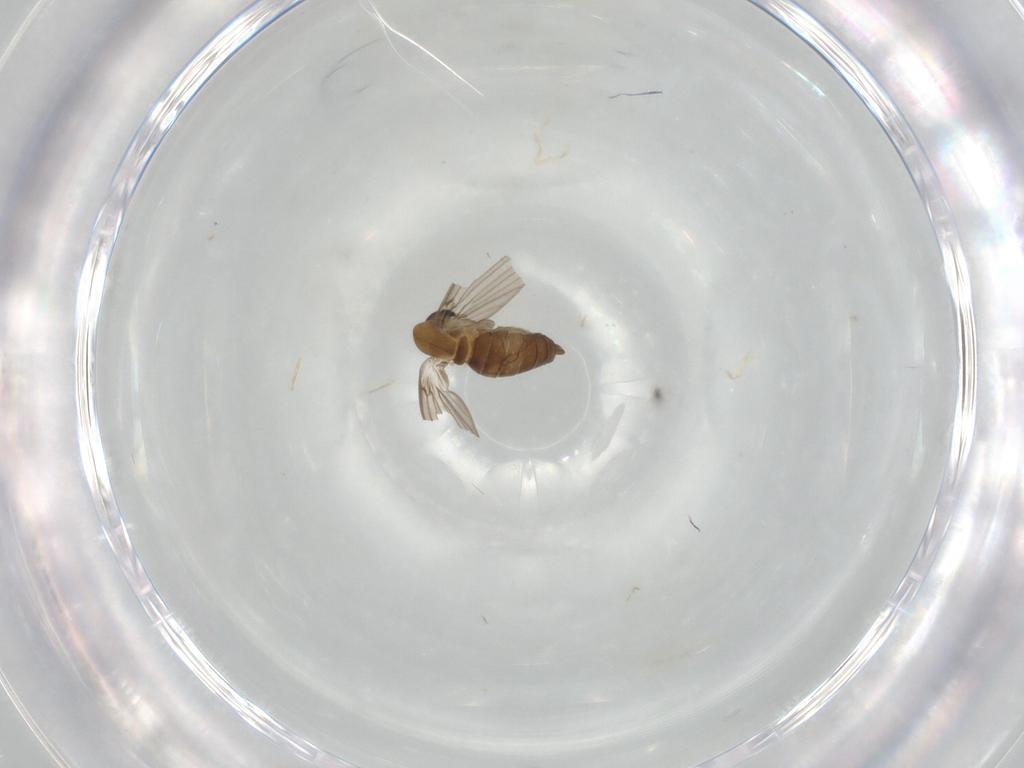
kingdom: Animalia
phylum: Arthropoda
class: Insecta
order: Diptera
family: Psychodidae
